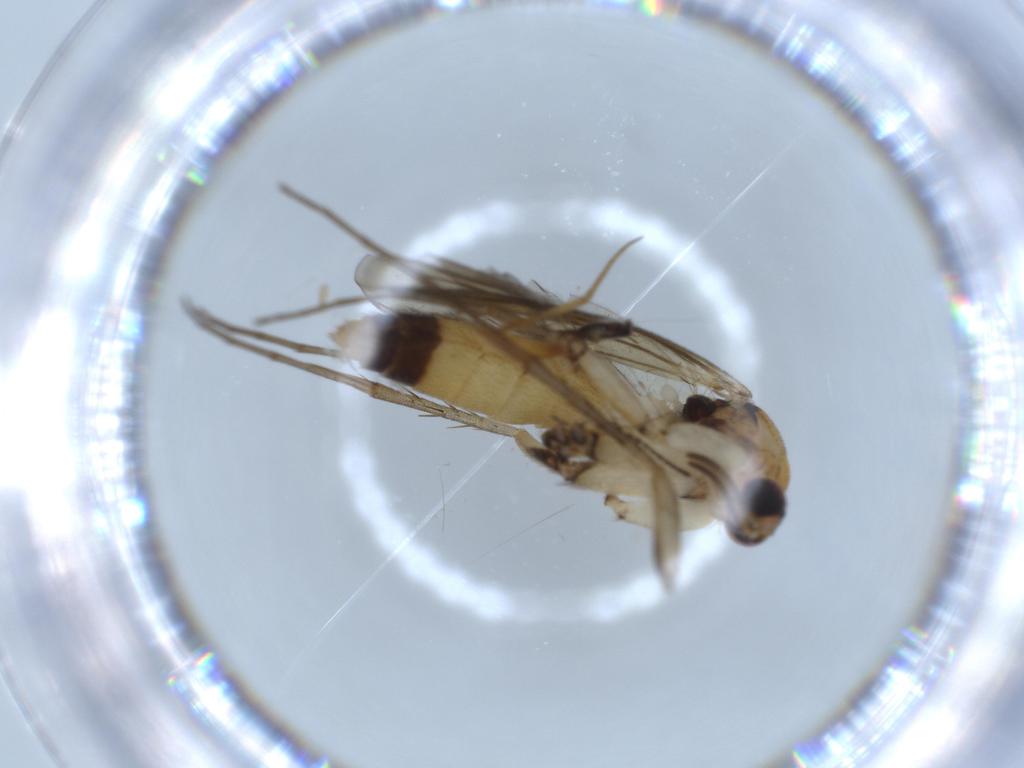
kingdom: Animalia
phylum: Arthropoda
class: Insecta
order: Diptera
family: Mycetophilidae
